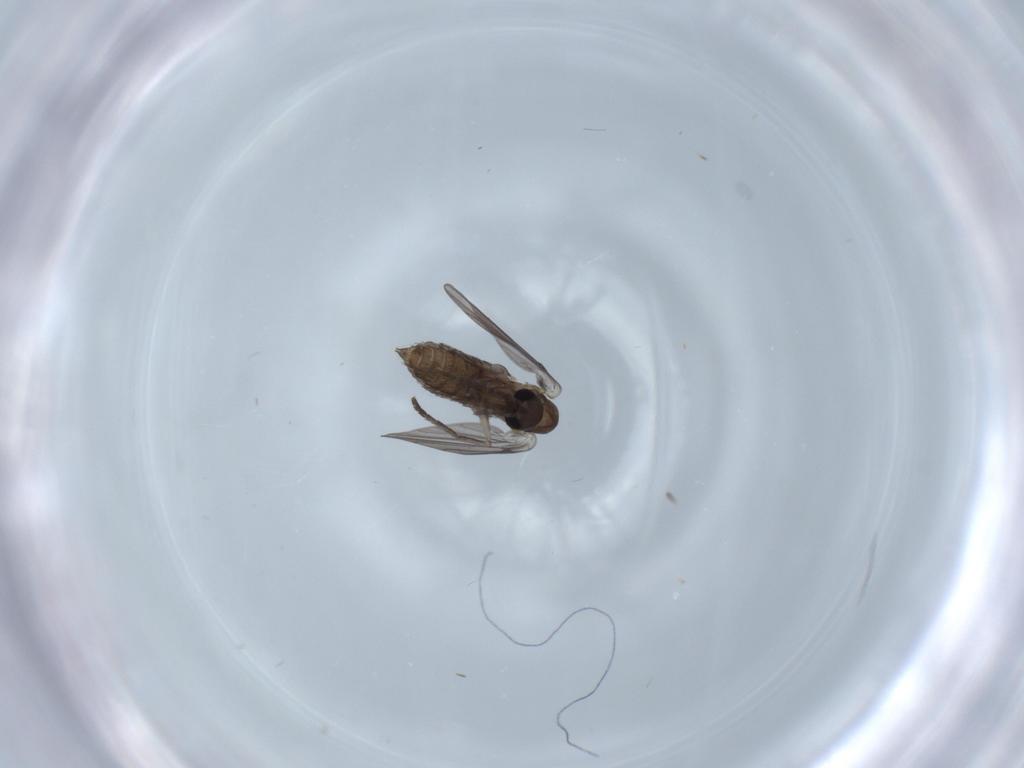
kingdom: Animalia
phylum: Arthropoda
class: Insecta
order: Diptera
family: Psychodidae
